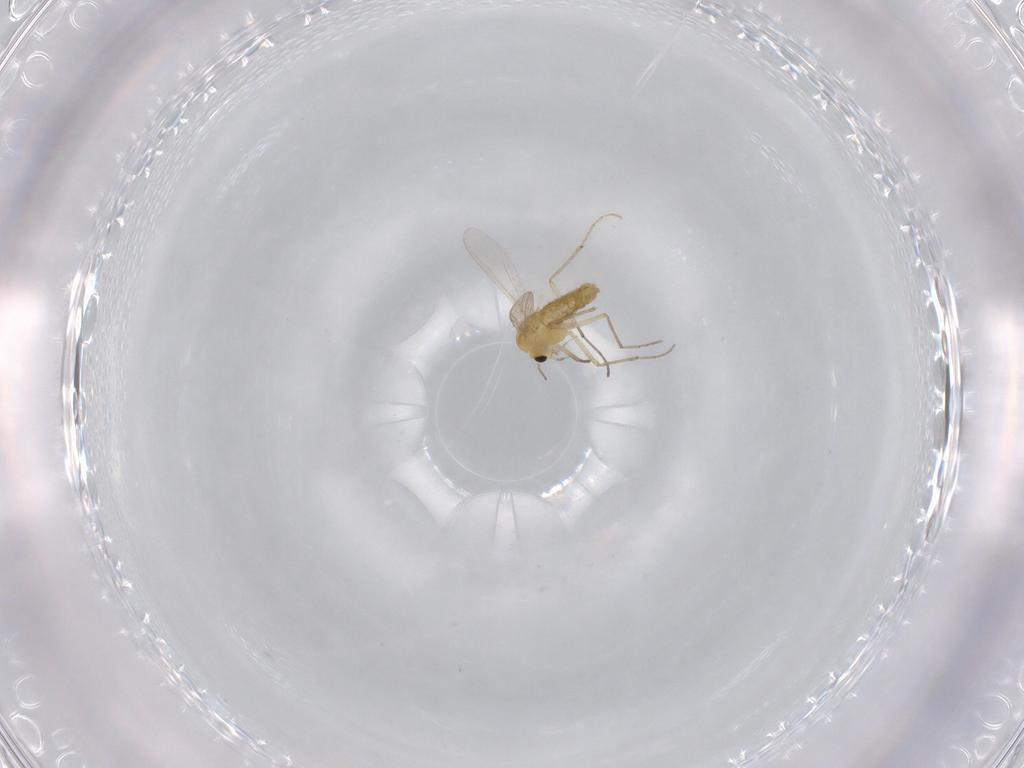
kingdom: Animalia
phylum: Arthropoda
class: Insecta
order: Diptera
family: Chironomidae
